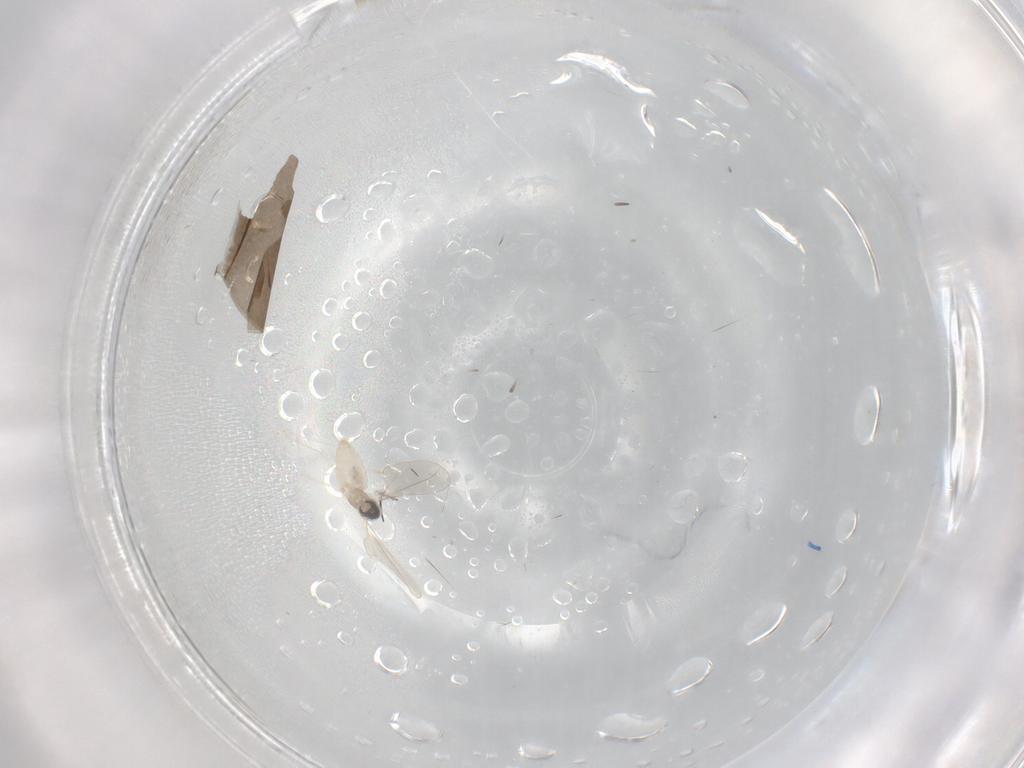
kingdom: Animalia
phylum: Arthropoda
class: Insecta
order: Diptera
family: Cecidomyiidae
